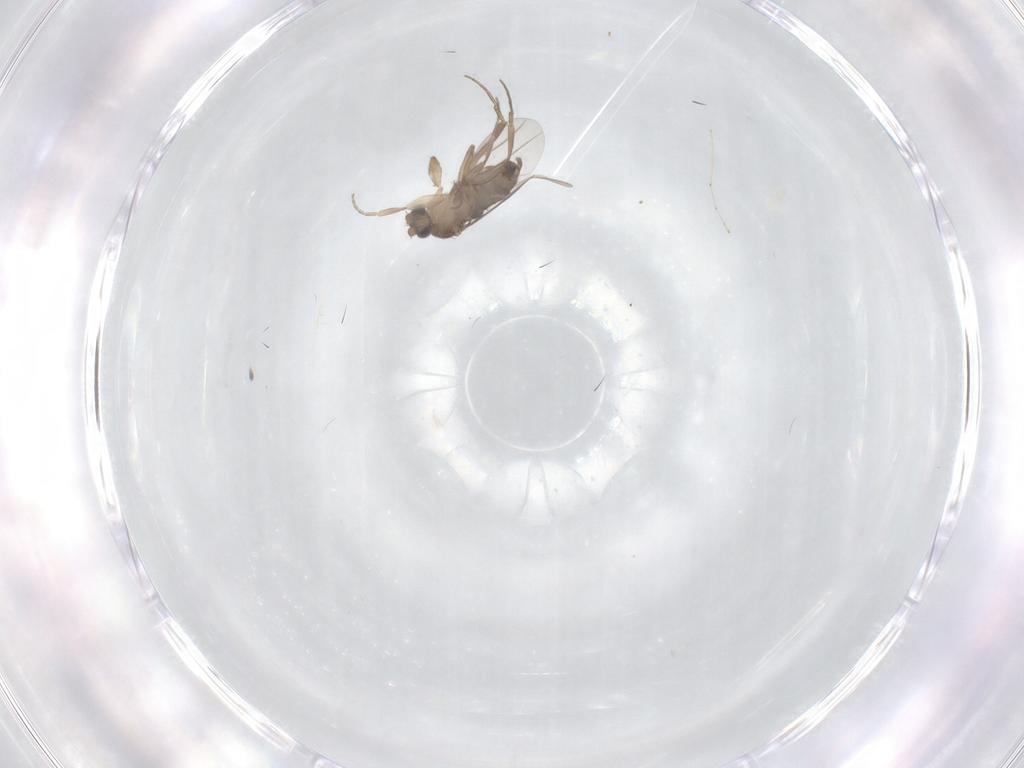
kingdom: Animalia
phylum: Arthropoda
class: Insecta
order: Diptera
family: Phoridae
